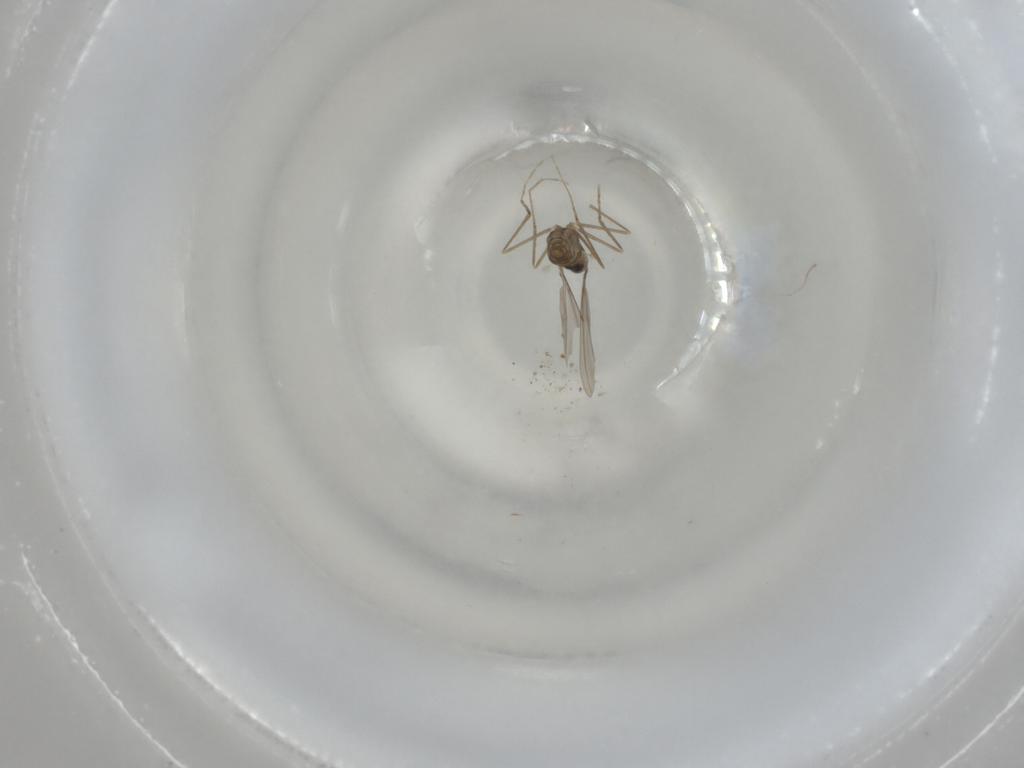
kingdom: Animalia
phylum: Arthropoda
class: Insecta
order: Diptera
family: Cecidomyiidae
